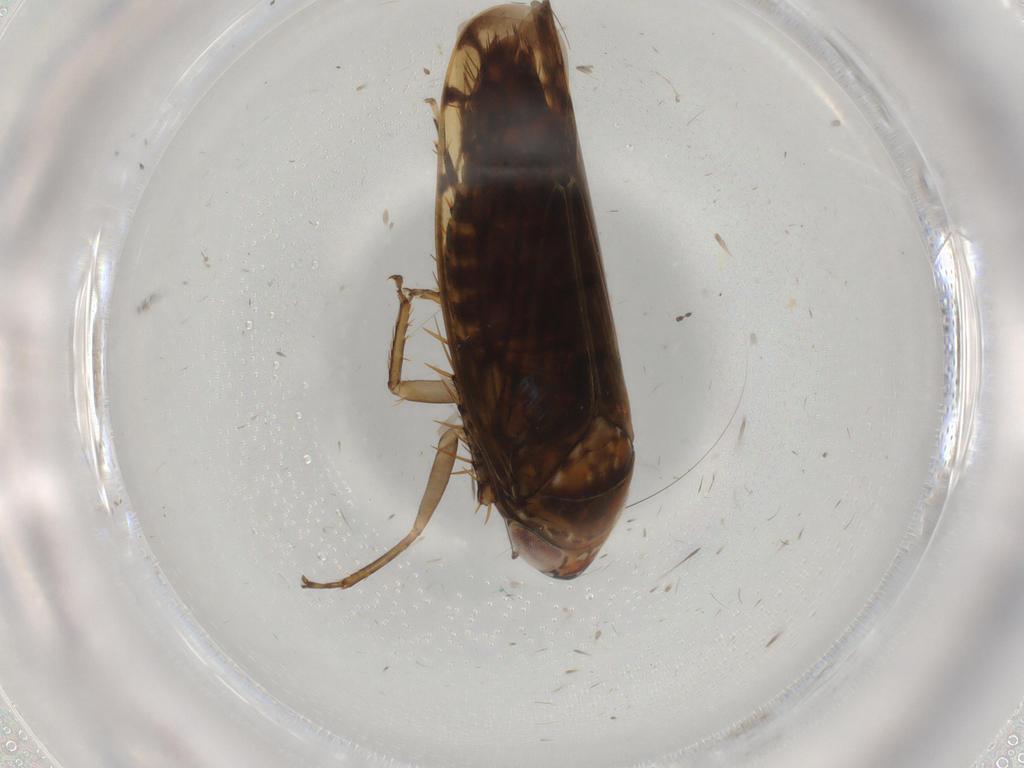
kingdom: Animalia
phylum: Arthropoda
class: Insecta
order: Hemiptera
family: Cicadellidae
